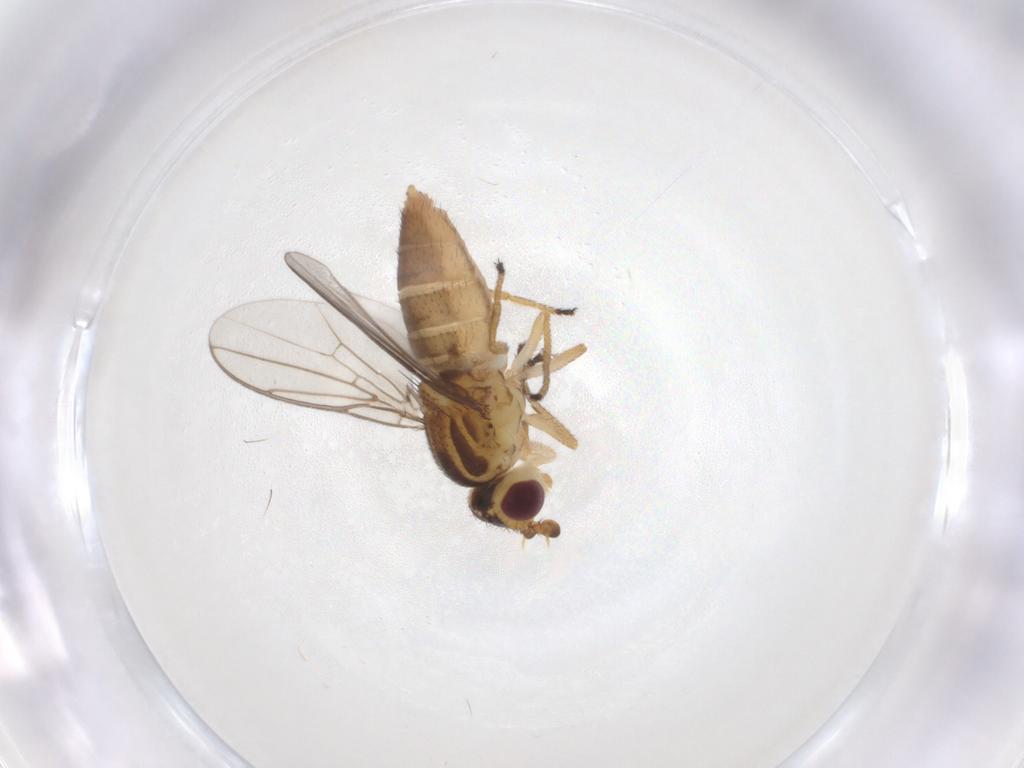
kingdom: Animalia
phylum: Arthropoda
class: Insecta
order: Diptera
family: Chloropidae
